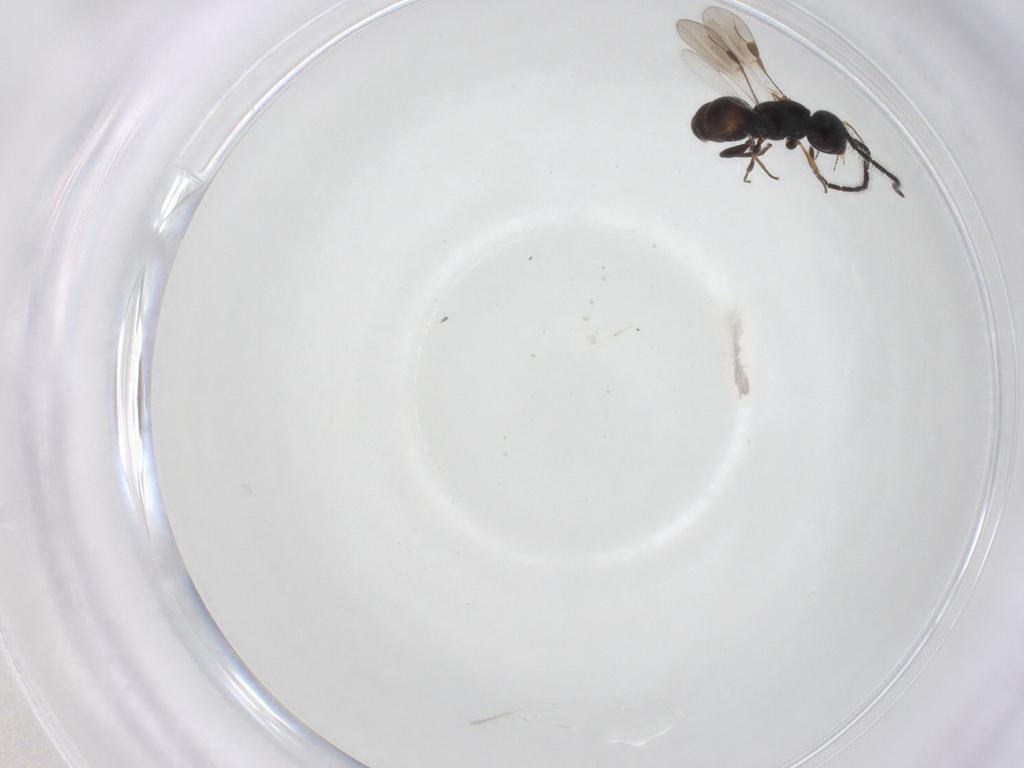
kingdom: Animalia
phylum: Arthropoda
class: Insecta
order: Hymenoptera
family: Megaspilidae
